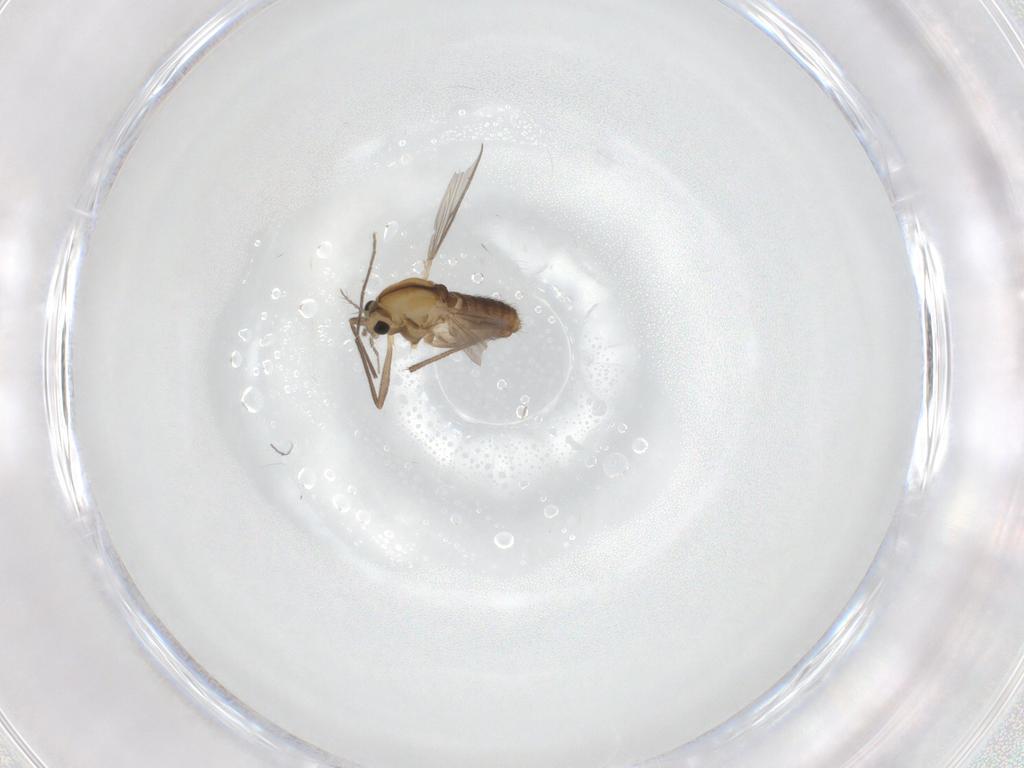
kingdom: Animalia
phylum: Arthropoda
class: Insecta
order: Diptera
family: Chironomidae
